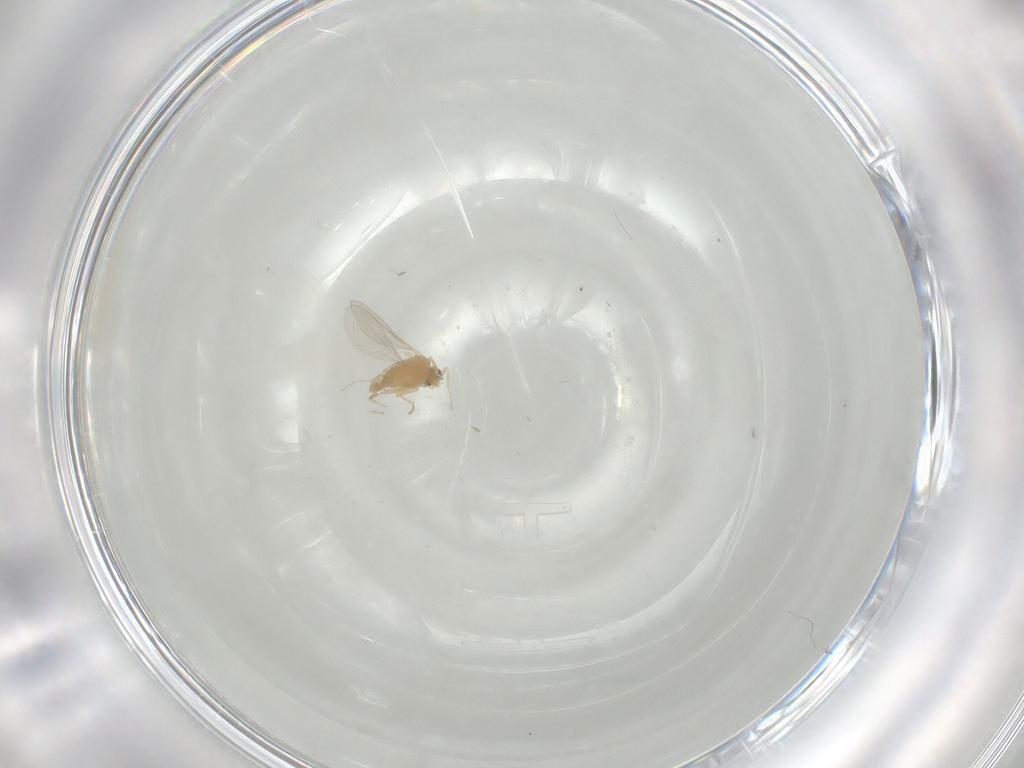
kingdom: Animalia
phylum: Arthropoda
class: Insecta
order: Diptera
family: Cecidomyiidae
